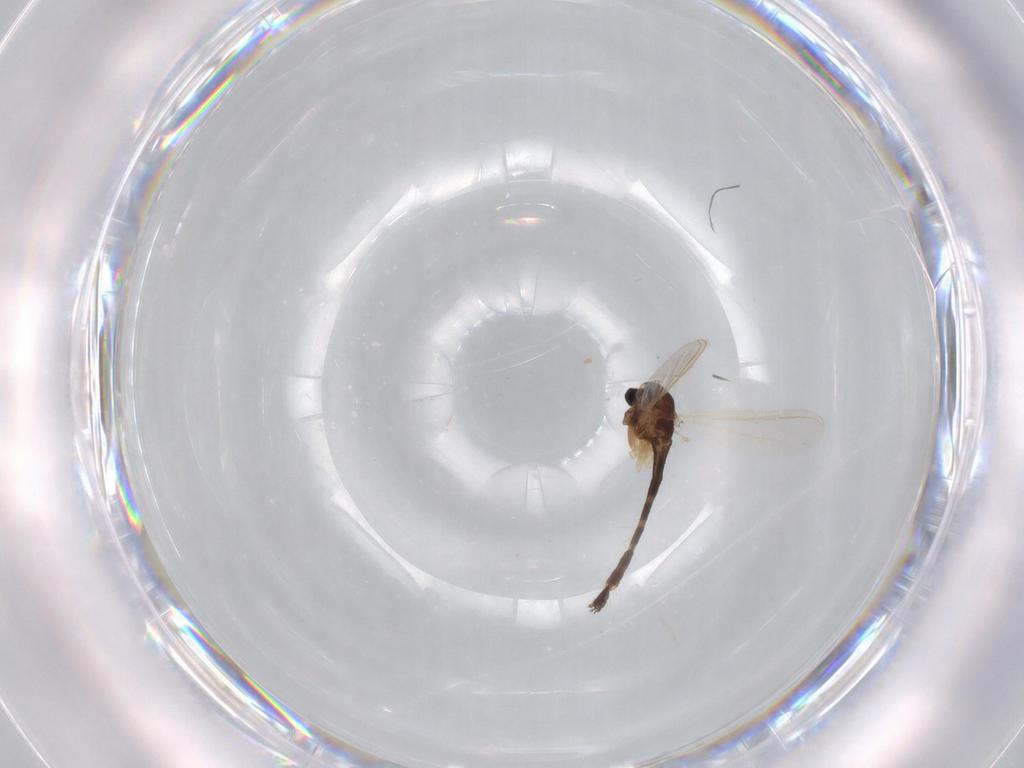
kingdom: Animalia
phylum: Arthropoda
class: Insecta
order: Diptera
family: Chironomidae
